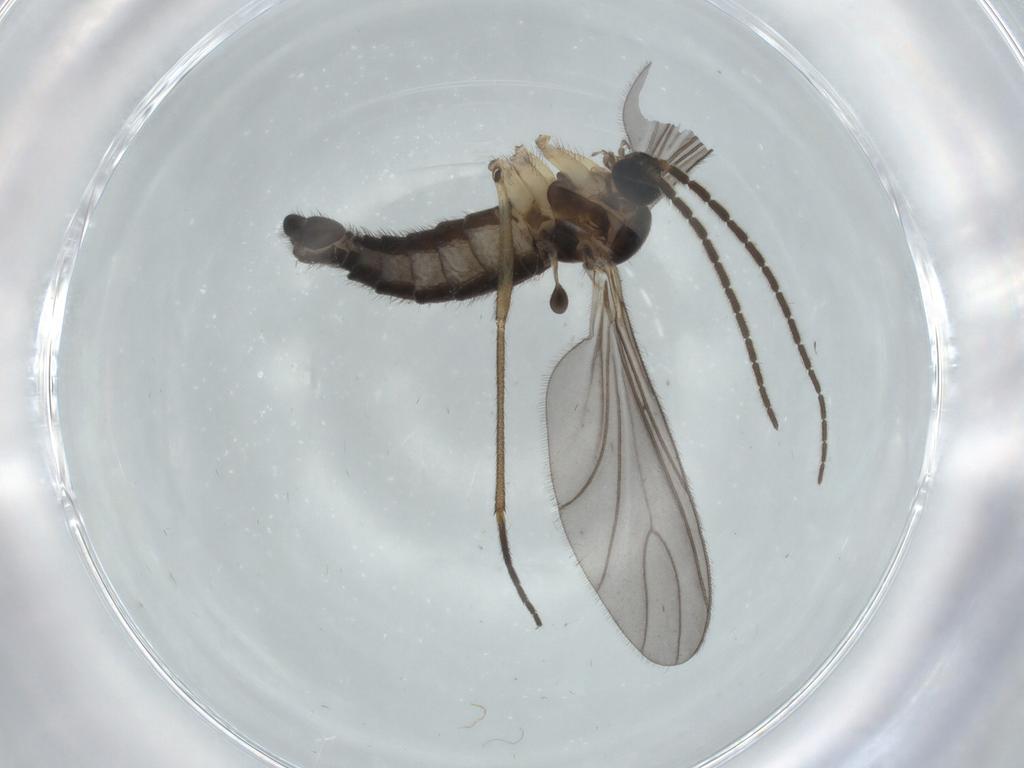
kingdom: Animalia
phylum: Arthropoda
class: Insecta
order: Diptera
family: Sciaridae
